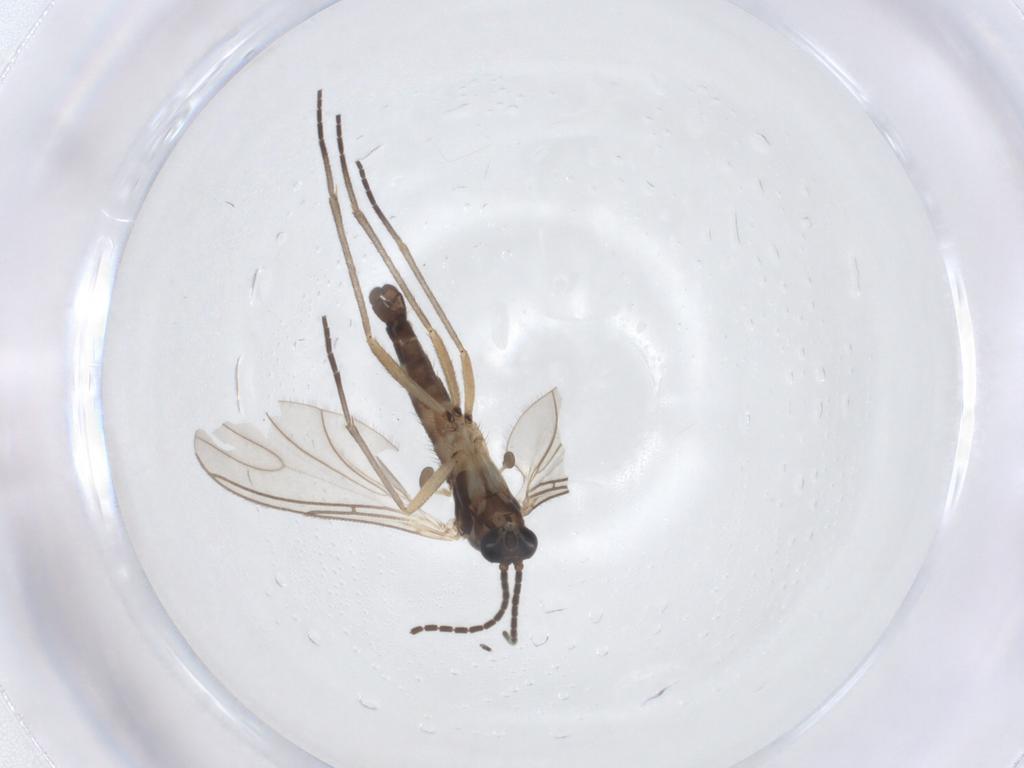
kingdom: Animalia
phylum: Arthropoda
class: Insecta
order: Diptera
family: Sciaridae
